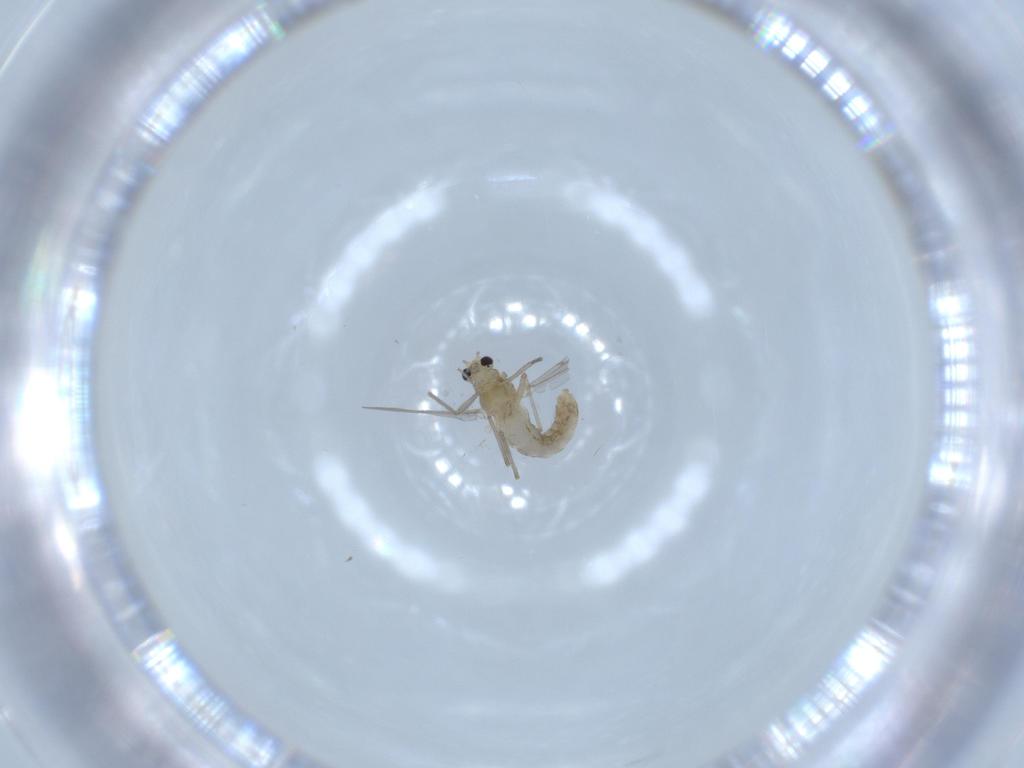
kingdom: Animalia
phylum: Arthropoda
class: Insecta
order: Diptera
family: Chironomidae
